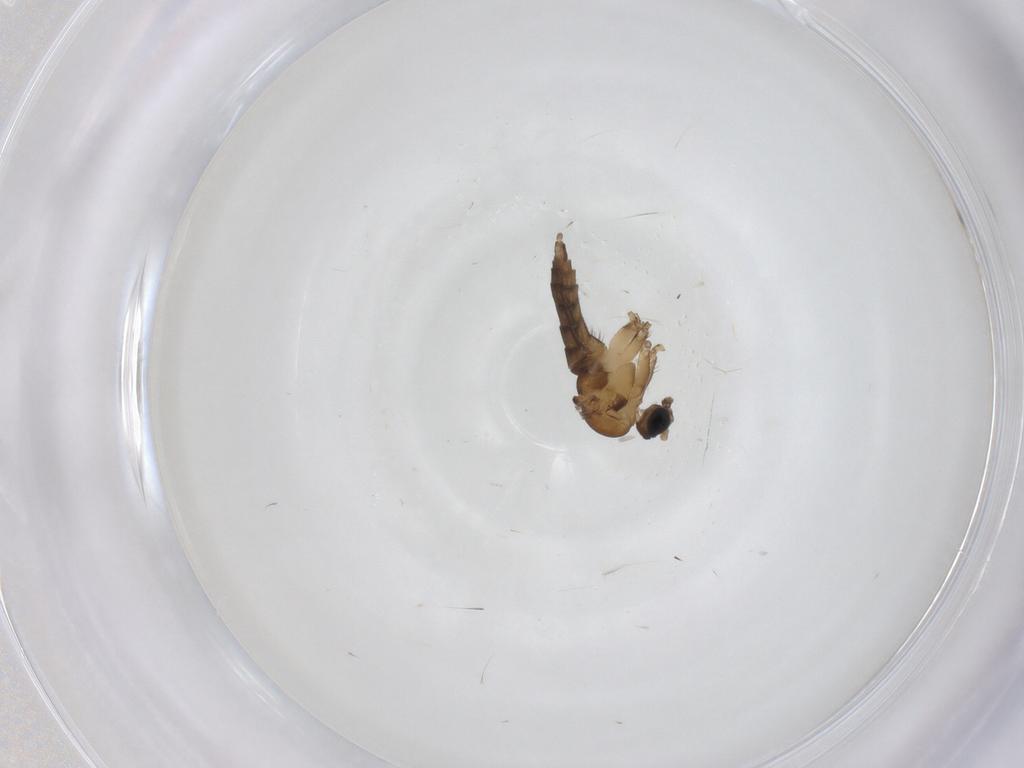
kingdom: Animalia
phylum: Arthropoda
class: Insecta
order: Diptera
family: Sciaridae
